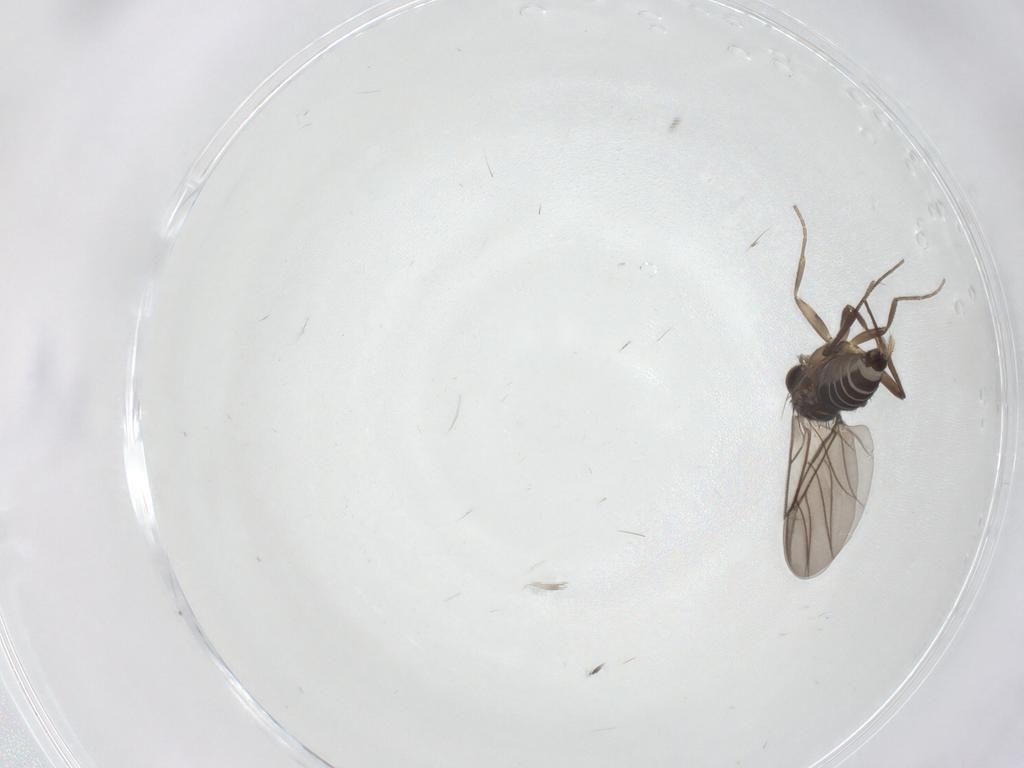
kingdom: Animalia
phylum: Arthropoda
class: Insecta
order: Diptera
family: Phoridae
